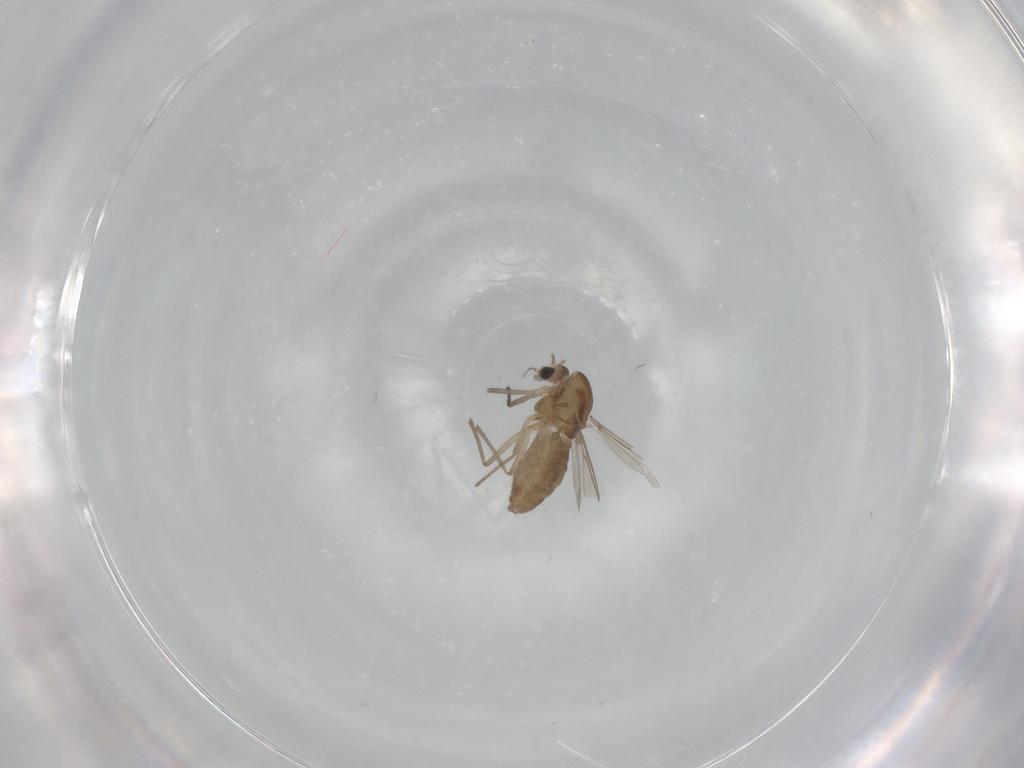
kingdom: Animalia
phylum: Arthropoda
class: Insecta
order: Diptera
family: Chironomidae
